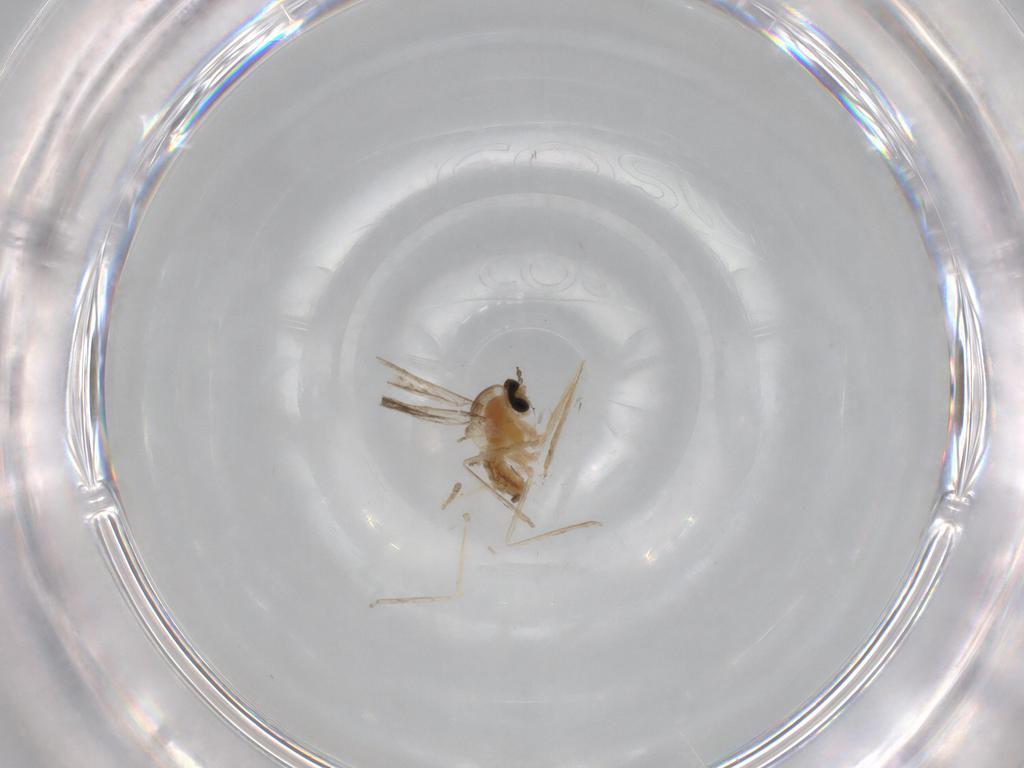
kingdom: Animalia
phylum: Arthropoda
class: Insecta
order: Diptera
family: Cecidomyiidae
